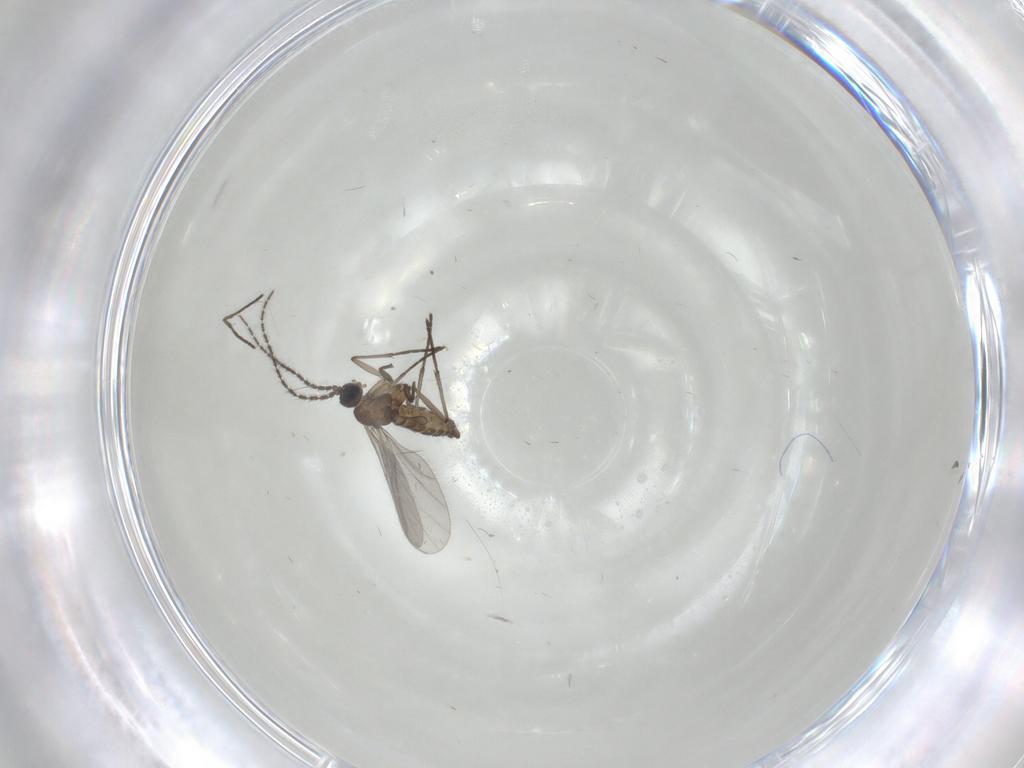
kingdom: Animalia
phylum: Arthropoda
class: Insecta
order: Diptera
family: Sciaridae
